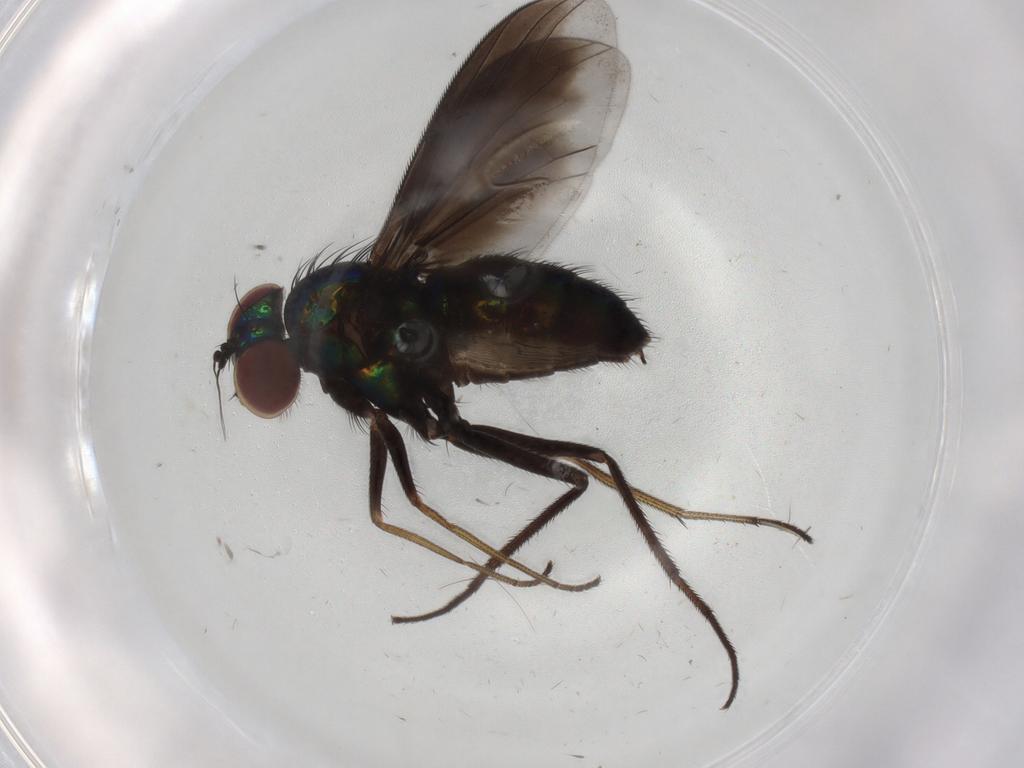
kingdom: Animalia
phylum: Arthropoda
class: Insecta
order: Diptera
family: Dolichopodidae
